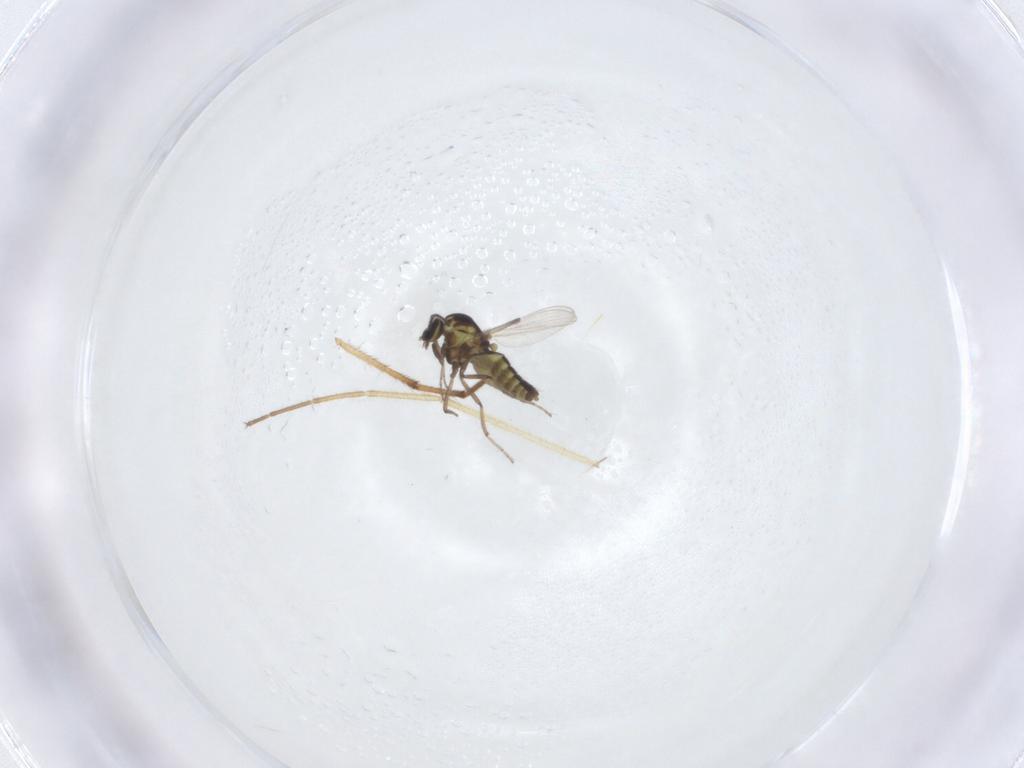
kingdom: Animalia
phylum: Arthropoda
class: Insecta
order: Diptera
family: Ceratopogonidae
